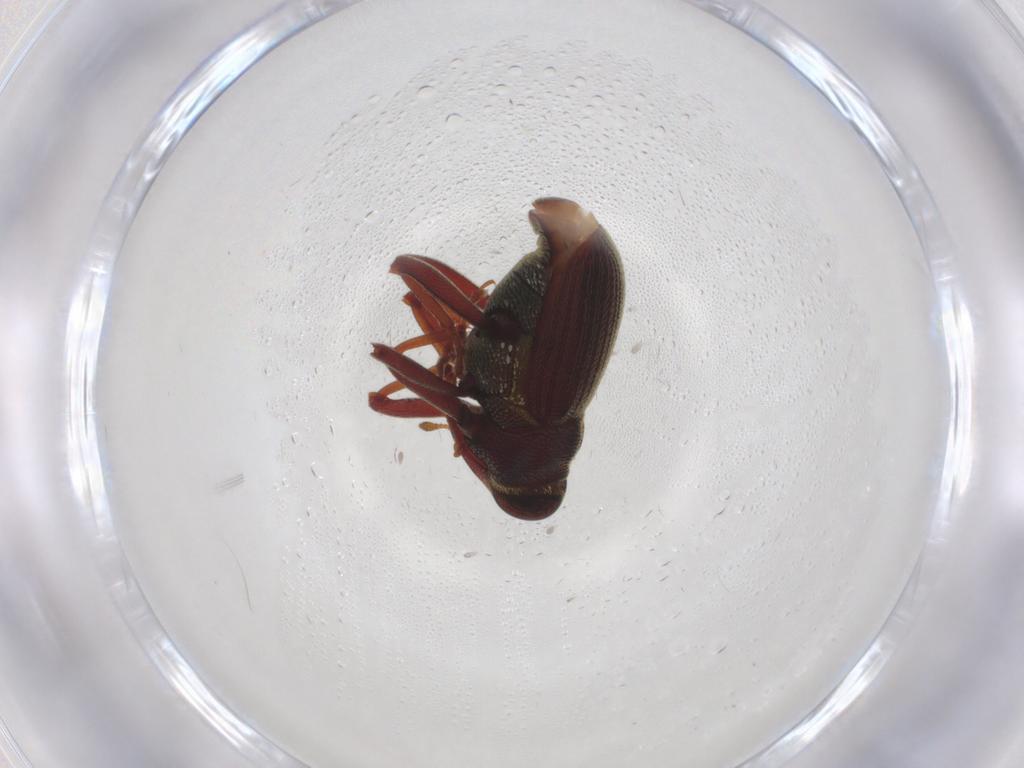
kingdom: Animalia
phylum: Arthropoda
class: Insecta
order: Coleoptera
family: Curculionidae
